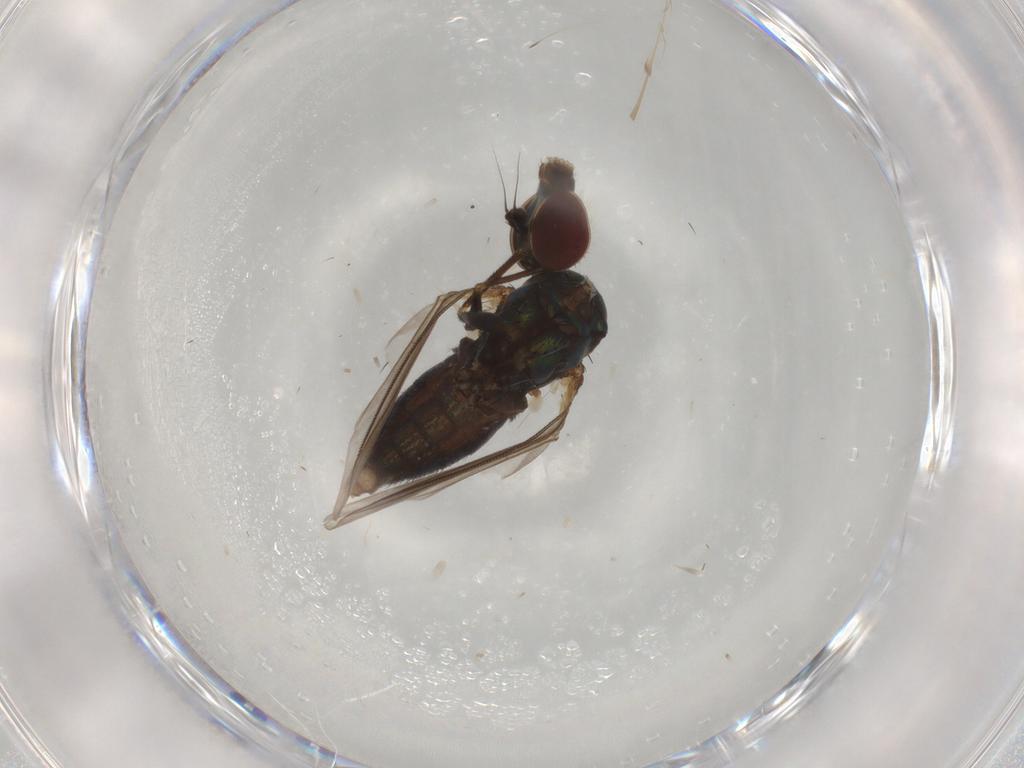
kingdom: Animalia
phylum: Arthropoda
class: Insecta
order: Diptera
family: Dolichopodidae
